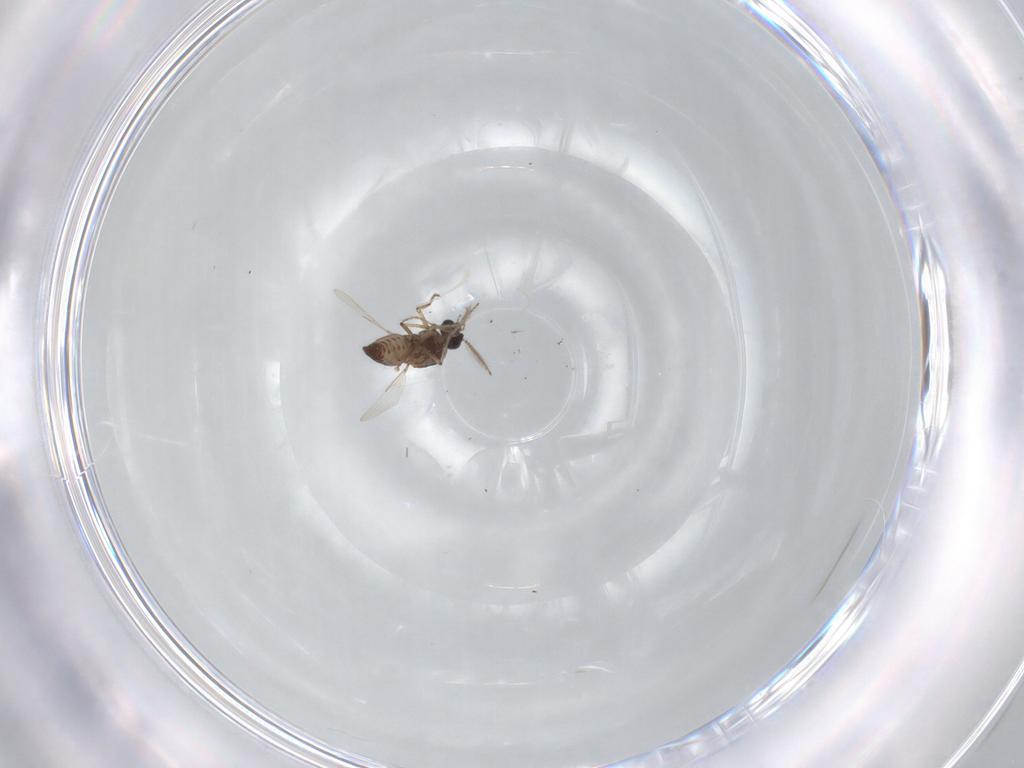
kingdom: Animalia
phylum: Arthropoda
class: Insecta
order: Diptera
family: Ceratopogonidae
